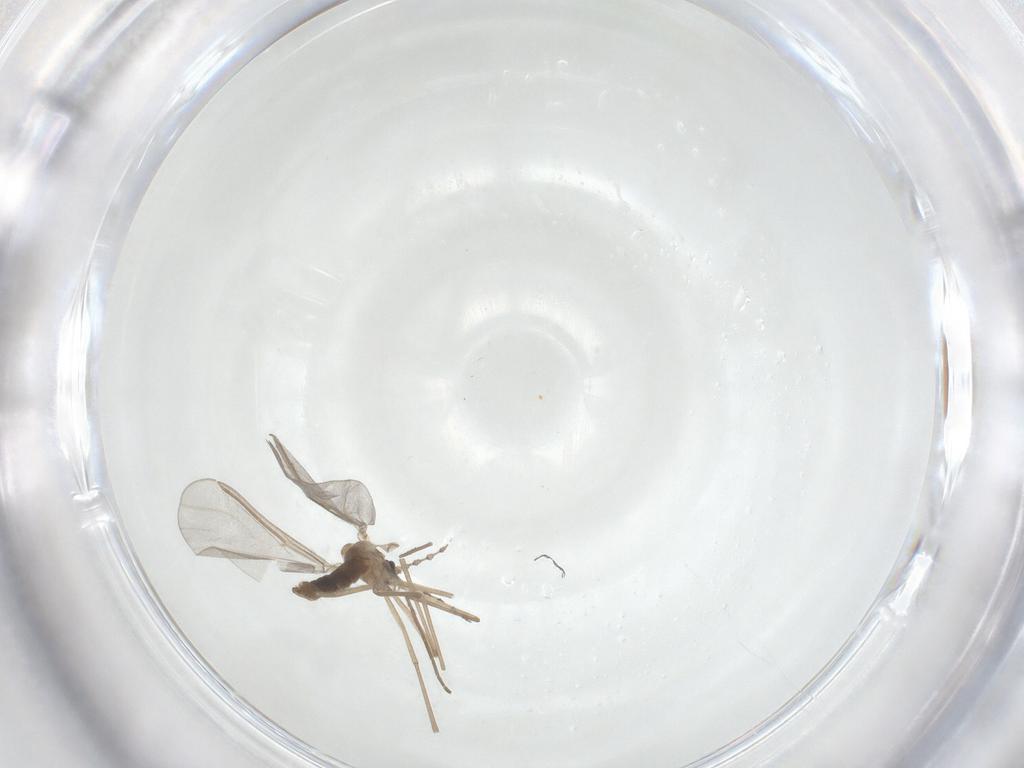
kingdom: Animalia
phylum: Arthropoda
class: Insecta
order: Diptera
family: Cecidomyiidae
